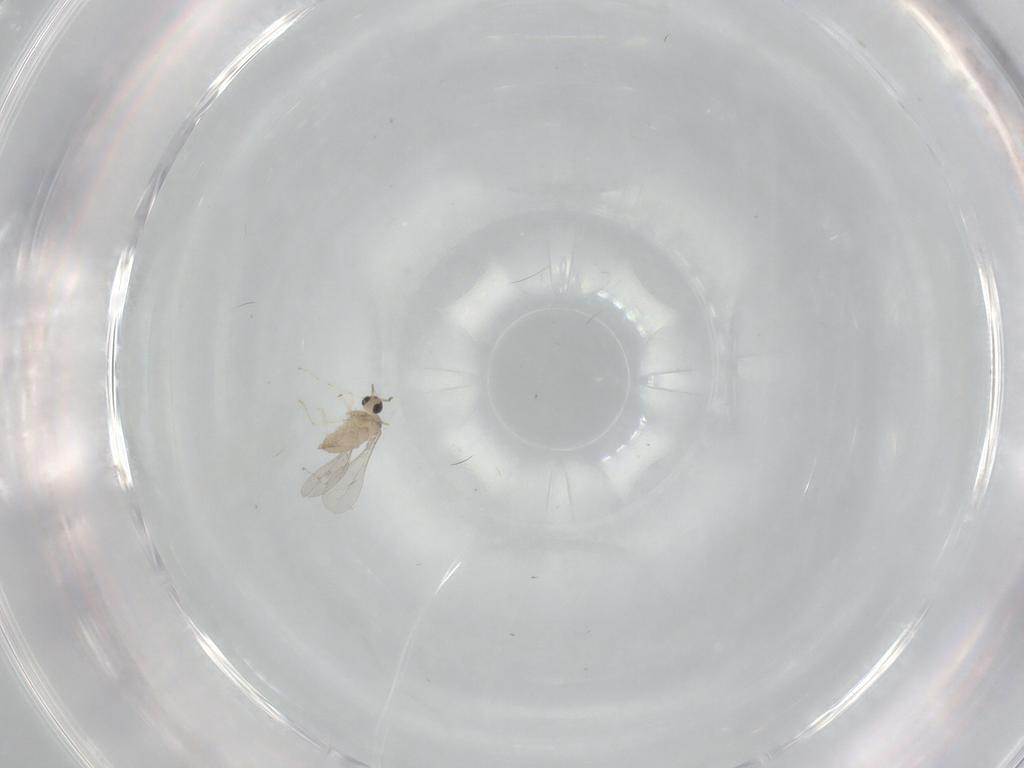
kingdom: Animalia
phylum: Arthropoda
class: Insecta
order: Diptera
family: Cecidomyiidae
